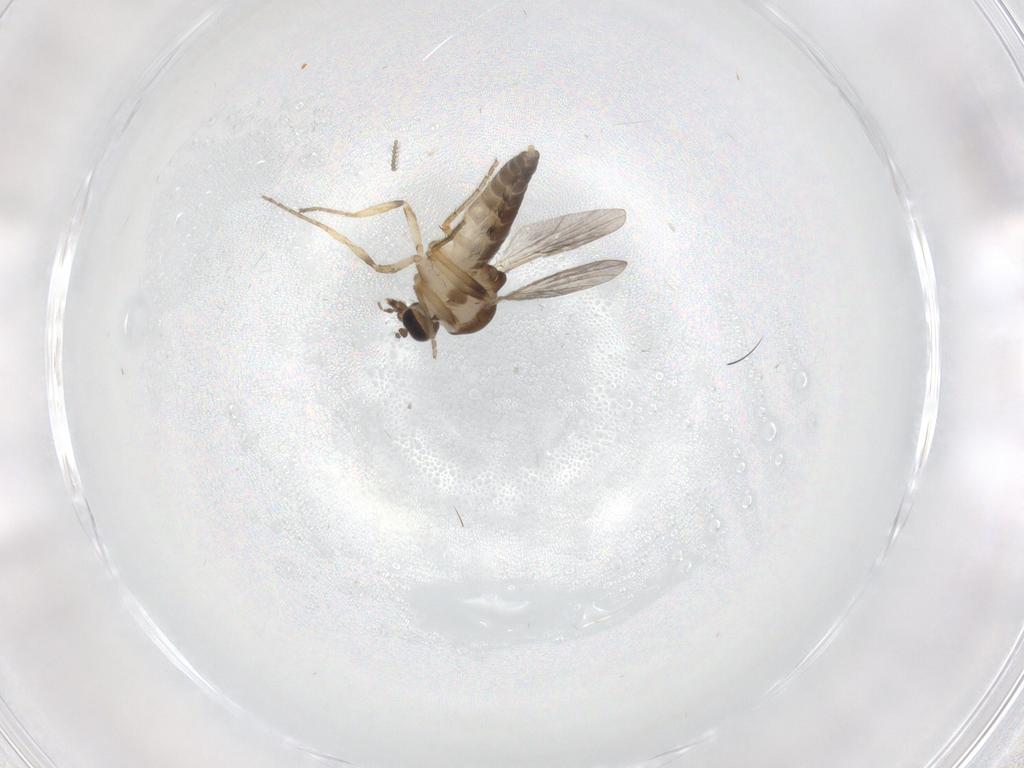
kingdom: Animalia
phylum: Arthropoda
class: Insecta
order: Diptera
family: Ceratopogonidae
